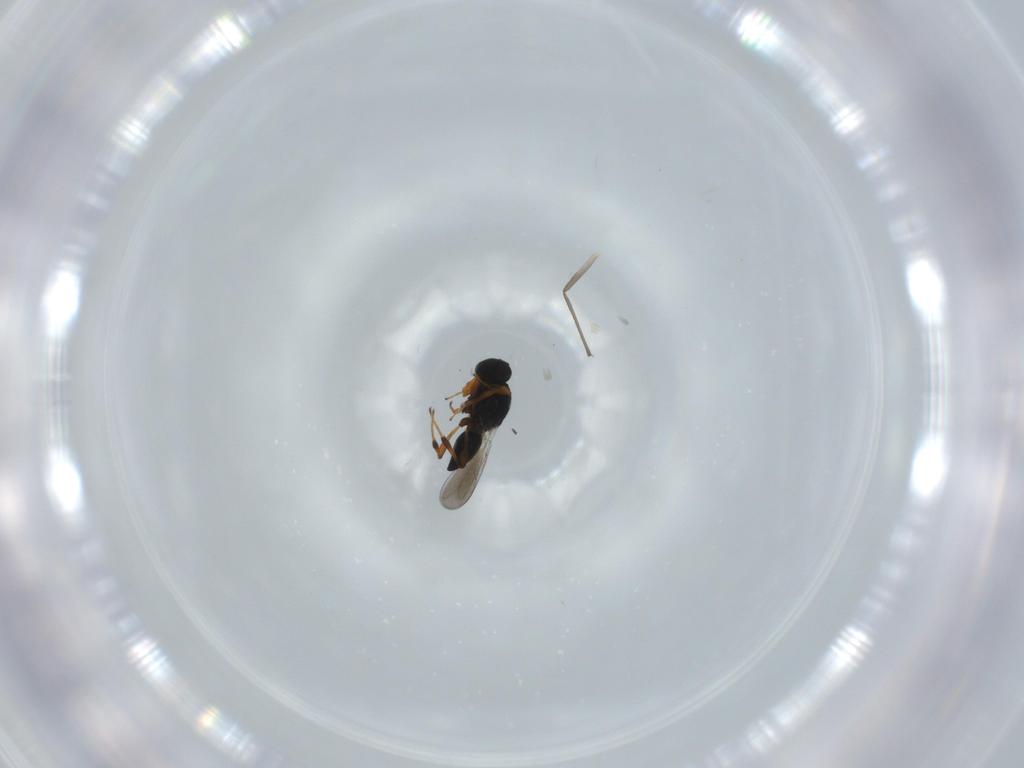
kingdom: Animalia
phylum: Arthropoda
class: Insecta
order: Hymenoptera
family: Platygastridae
